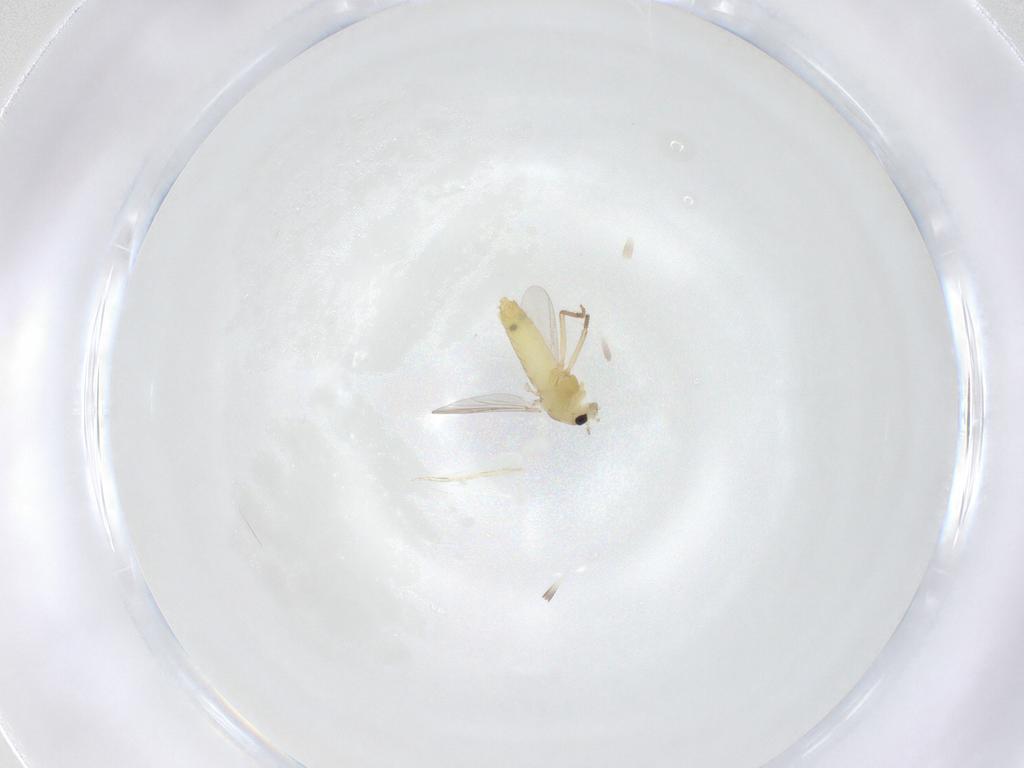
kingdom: Animalia
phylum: Arthropoda
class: Insecta
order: Diptera
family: Chironomidae
